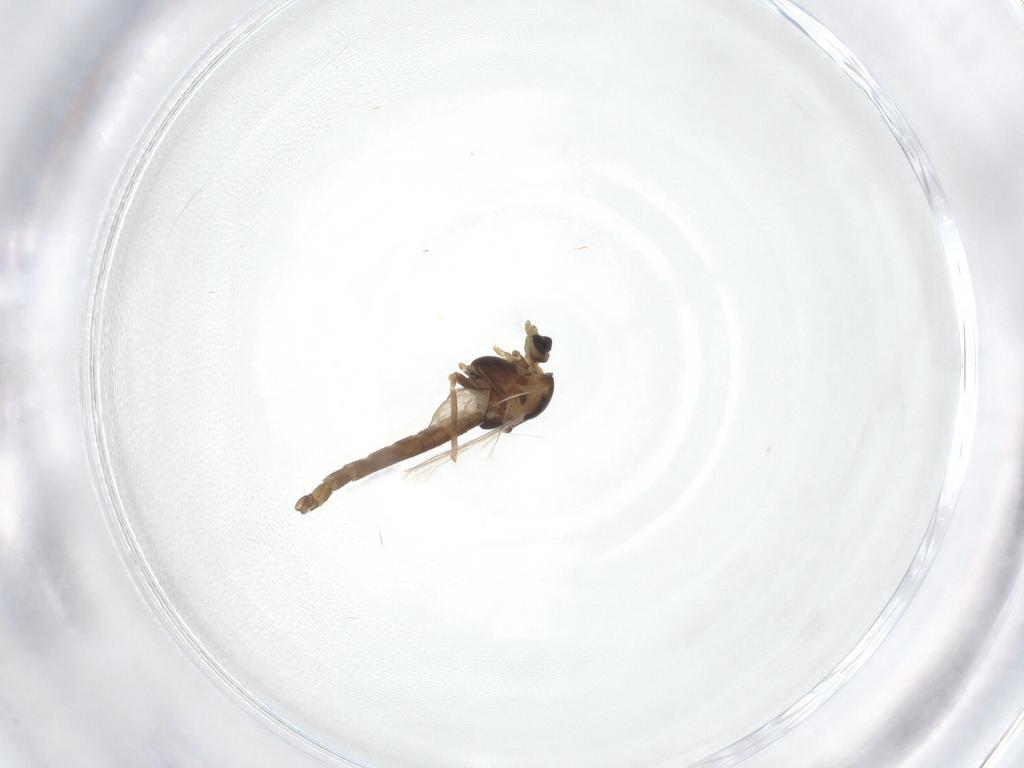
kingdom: Animalia
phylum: Arthropoda
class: Insecta
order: Diptera
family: Chironomidae
